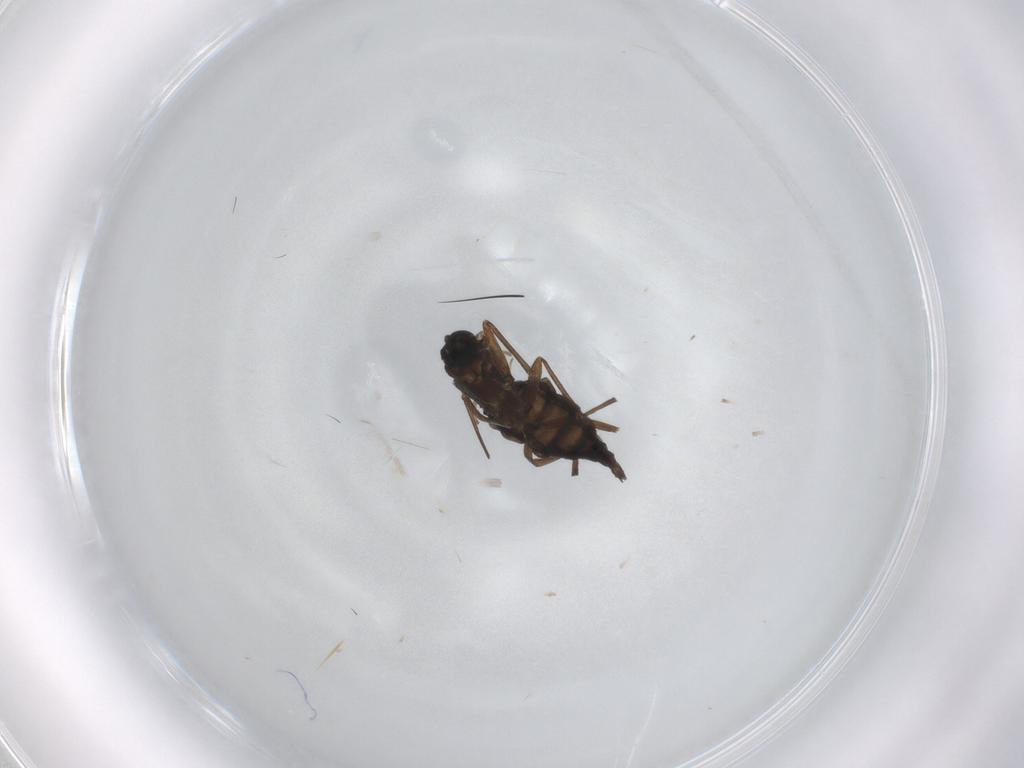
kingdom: Animalia
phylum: Arthropoda
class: Insecta
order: Diptera
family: Sciaridae
